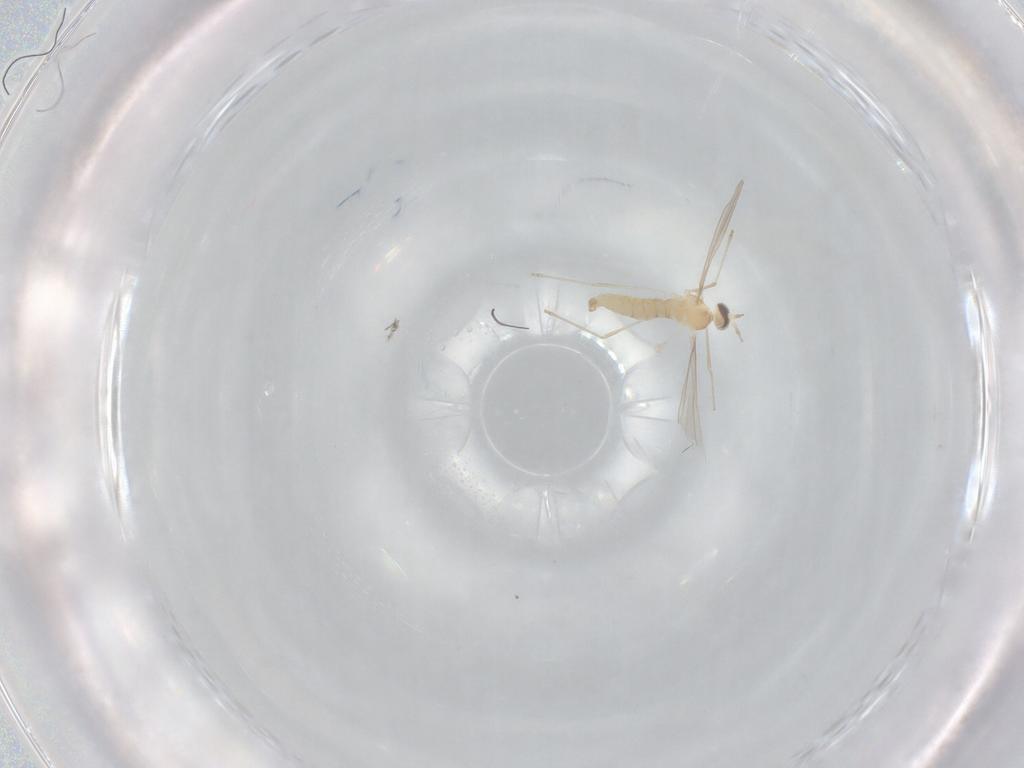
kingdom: Animalia
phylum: Arthropoda
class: Insecta
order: Diptera
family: Cecidomyiidae
